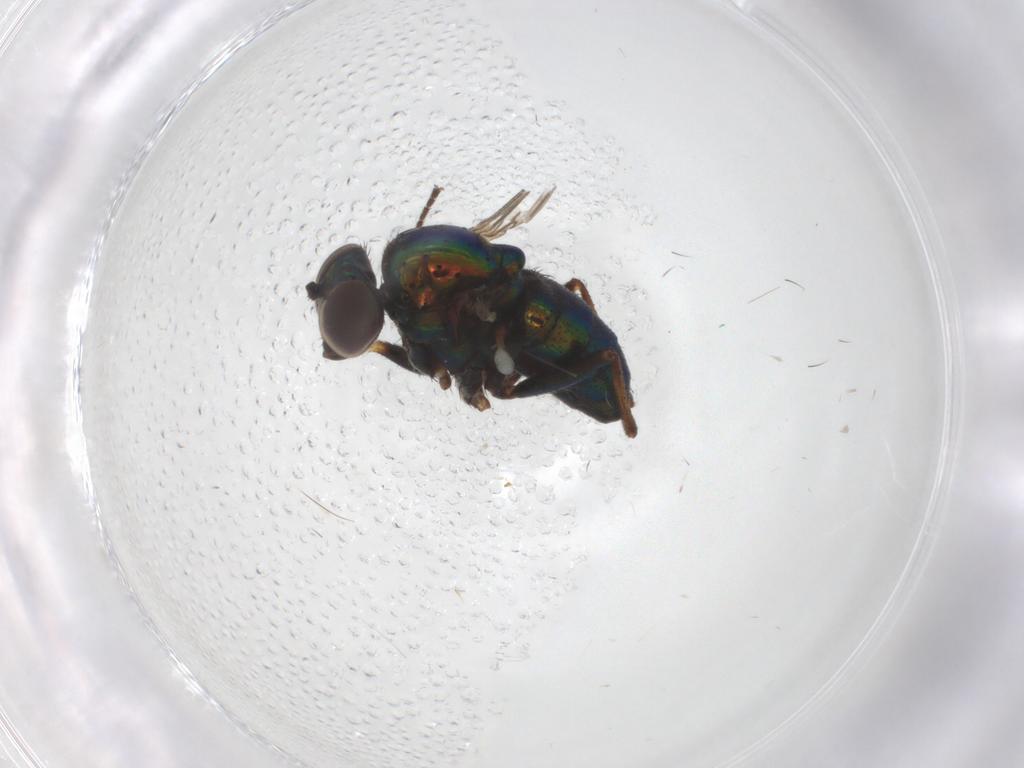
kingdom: Animalia
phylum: Arthropoda
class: Insecta
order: Diptera
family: Dolichopodidae
